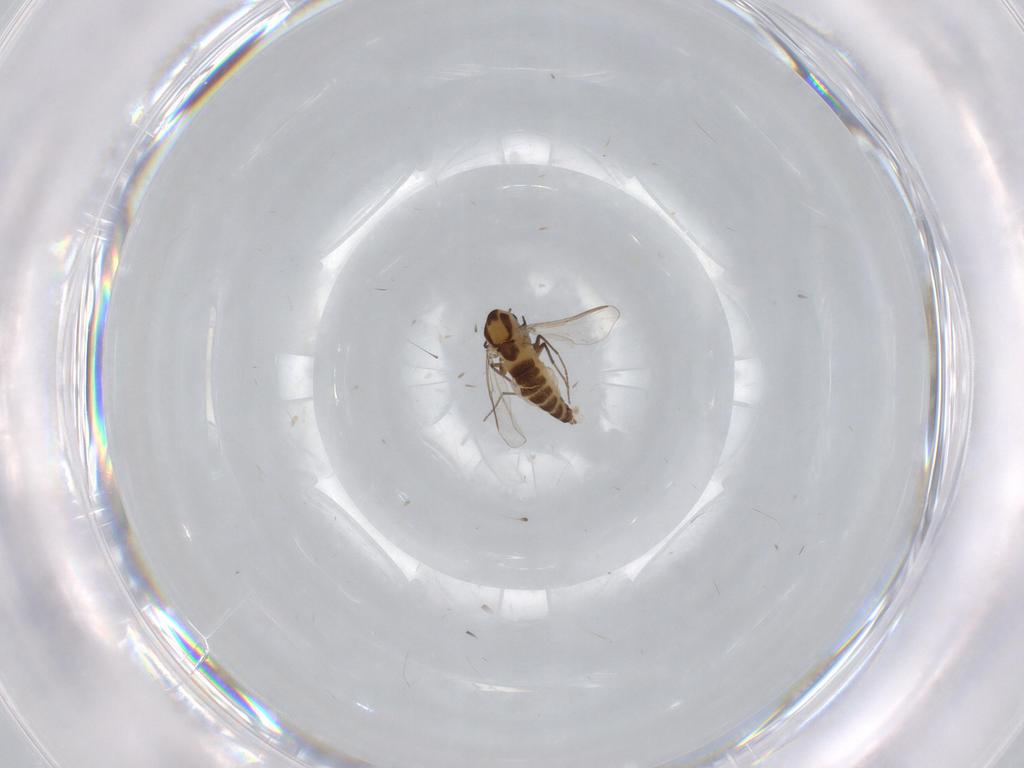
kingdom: Animalia
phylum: Arthropoda
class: Insecta
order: Diptera
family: Chironomidae
